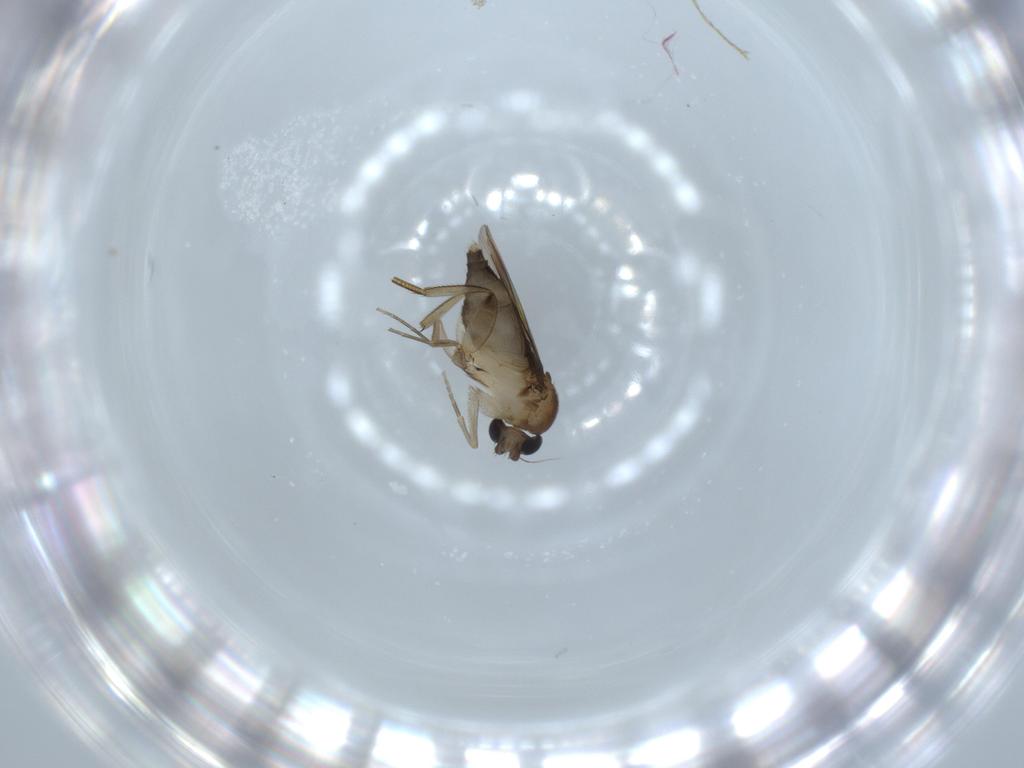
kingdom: Animalia
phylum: Arthropoda
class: Insecta
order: Diptera
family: Phoridae
